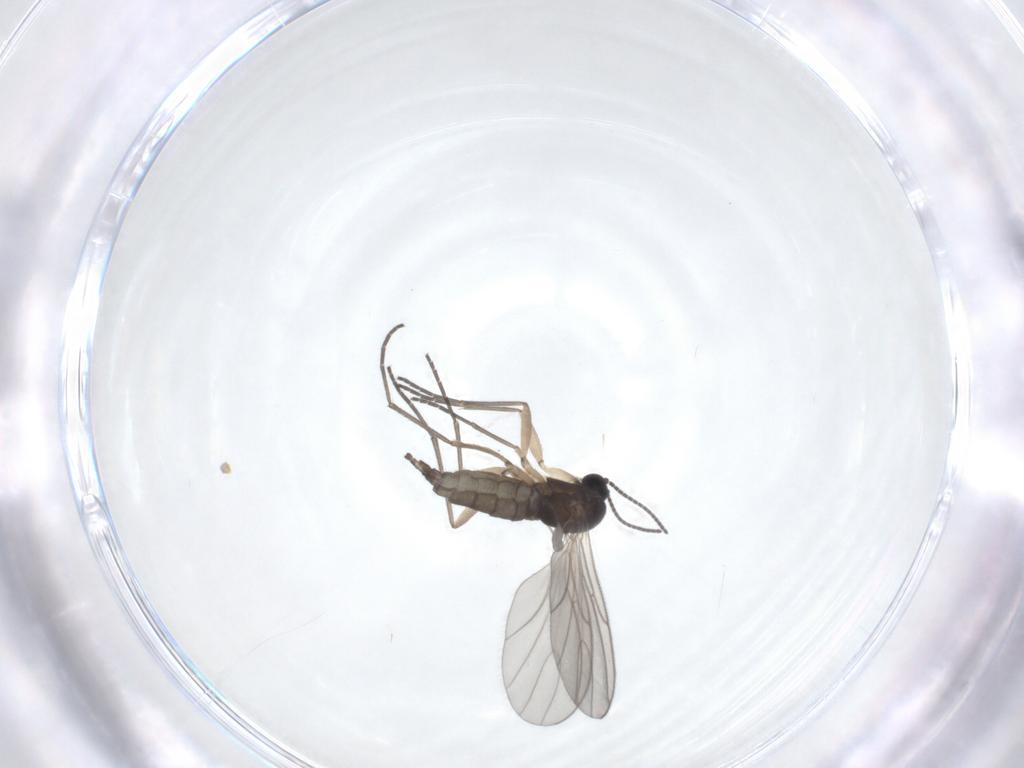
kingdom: Animalia
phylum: Arthropoda
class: Insecta
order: Diptera
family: Sciaridae
